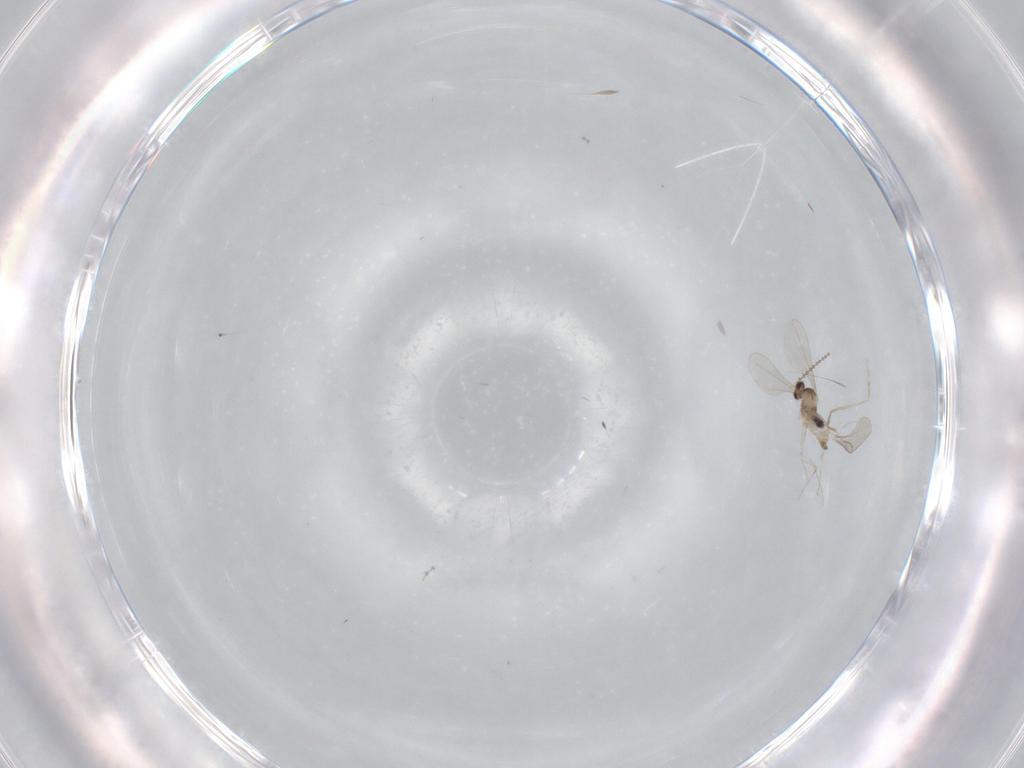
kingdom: Animalia
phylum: Arthropoda
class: Insecta
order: Diptera
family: Cecidomyiidae
